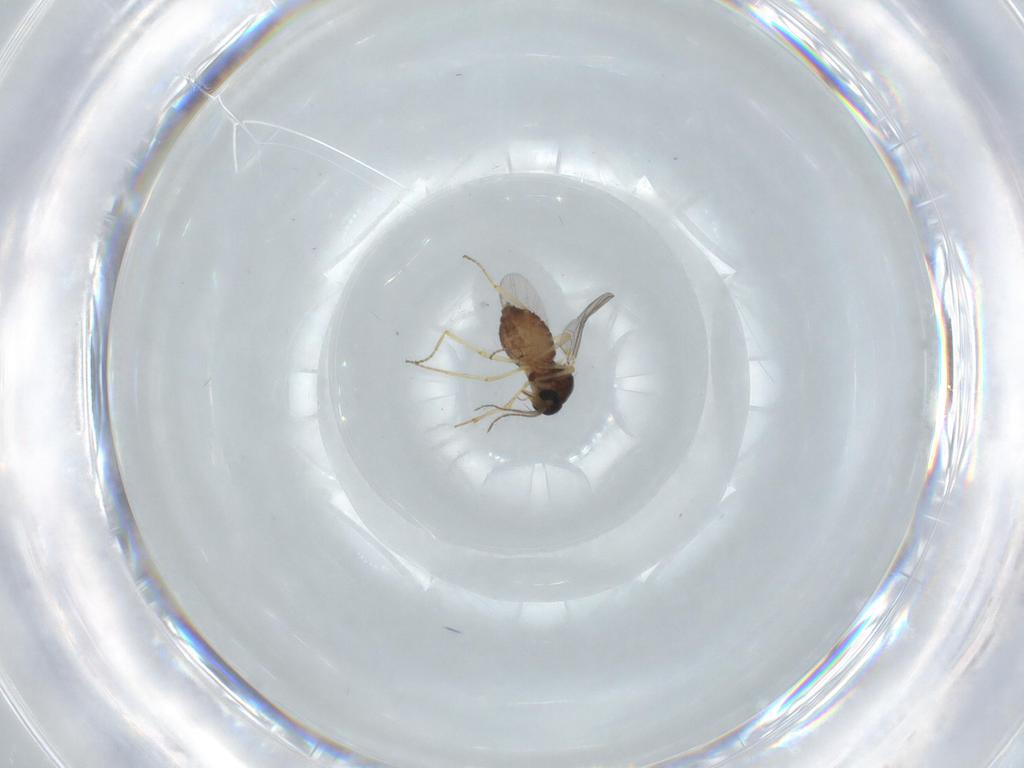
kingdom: Animalia
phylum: Arthropoda
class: Insecta
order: Diptera
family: Ceratopogonidae
